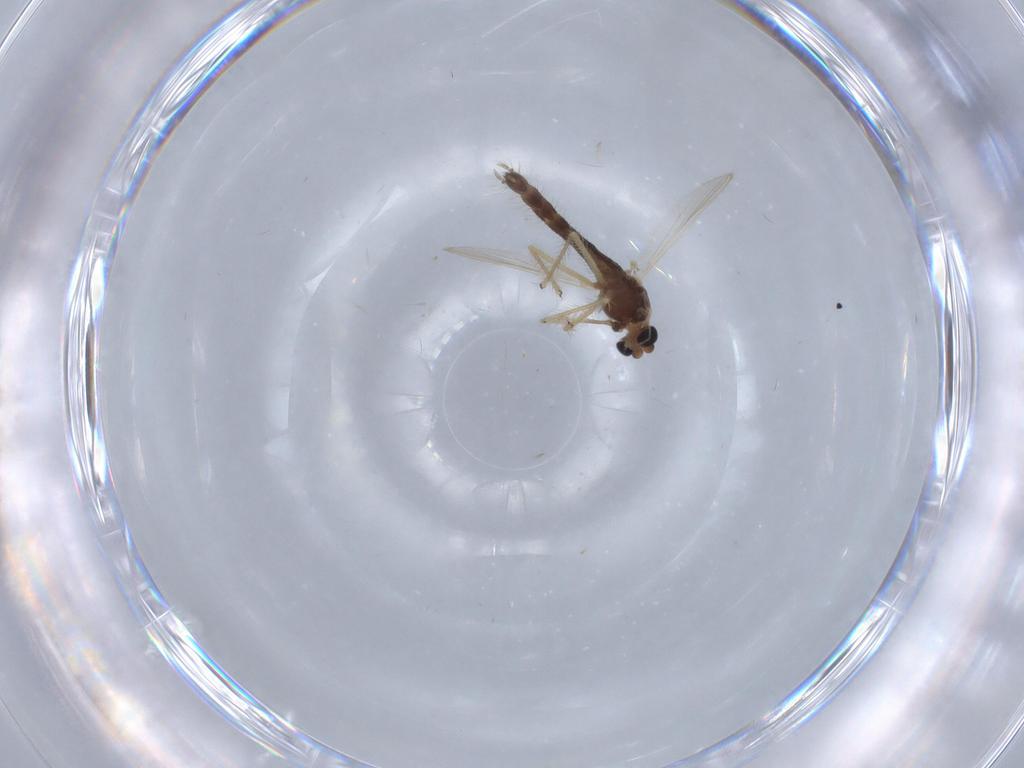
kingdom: Animalia
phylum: Arthropoda
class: Insecta
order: Diptera
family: Chironomidae
